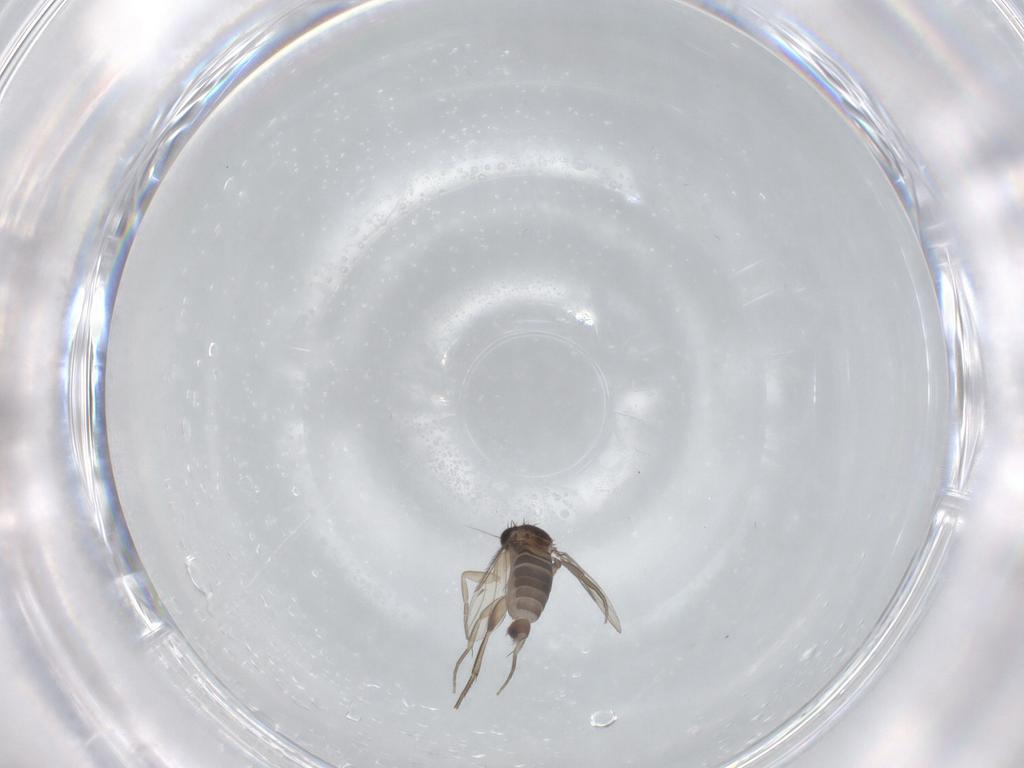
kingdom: Animalia
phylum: Arthropoda
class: Insecta
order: Diptera
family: Phoridae
